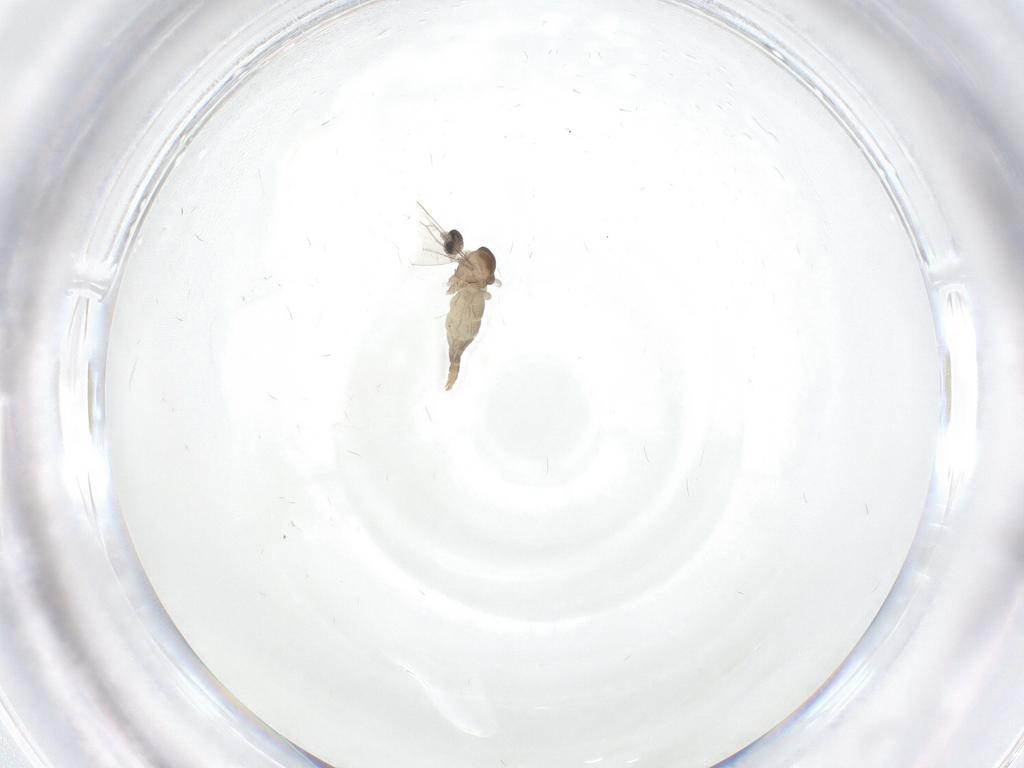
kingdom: Animalia
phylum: Arthropoda
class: Insecta
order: Diptera
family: Cecidomyiidae
